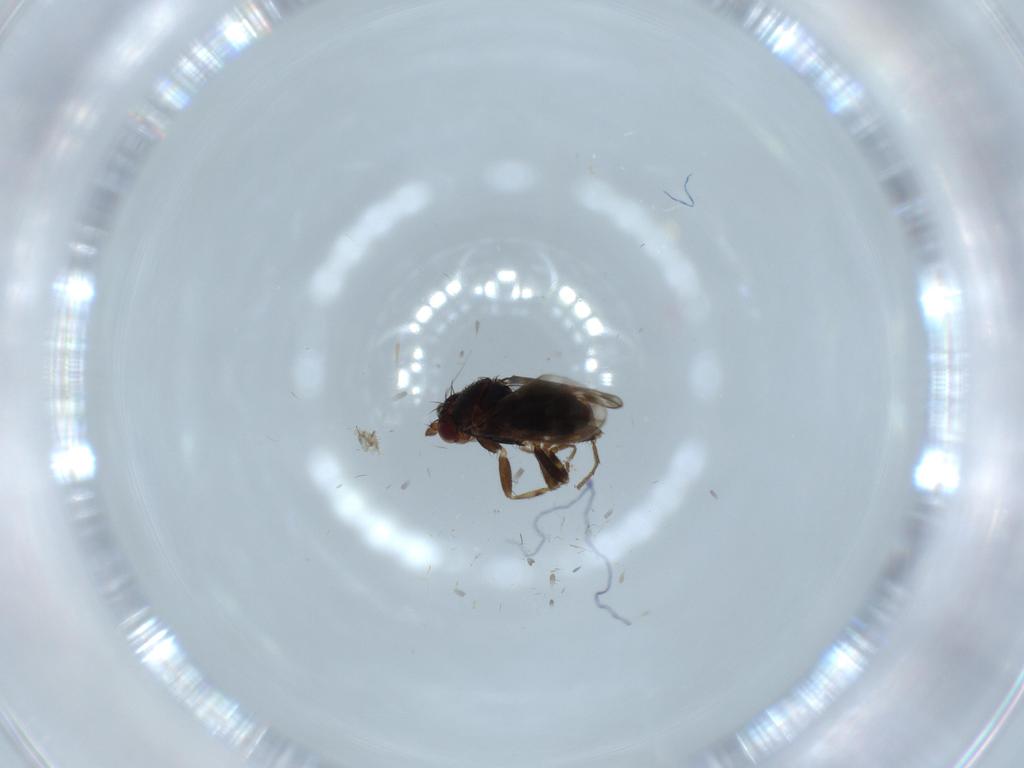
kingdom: Animalia
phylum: Arthropoda
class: Insecta
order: Diptera
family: Sphaeroceridae
